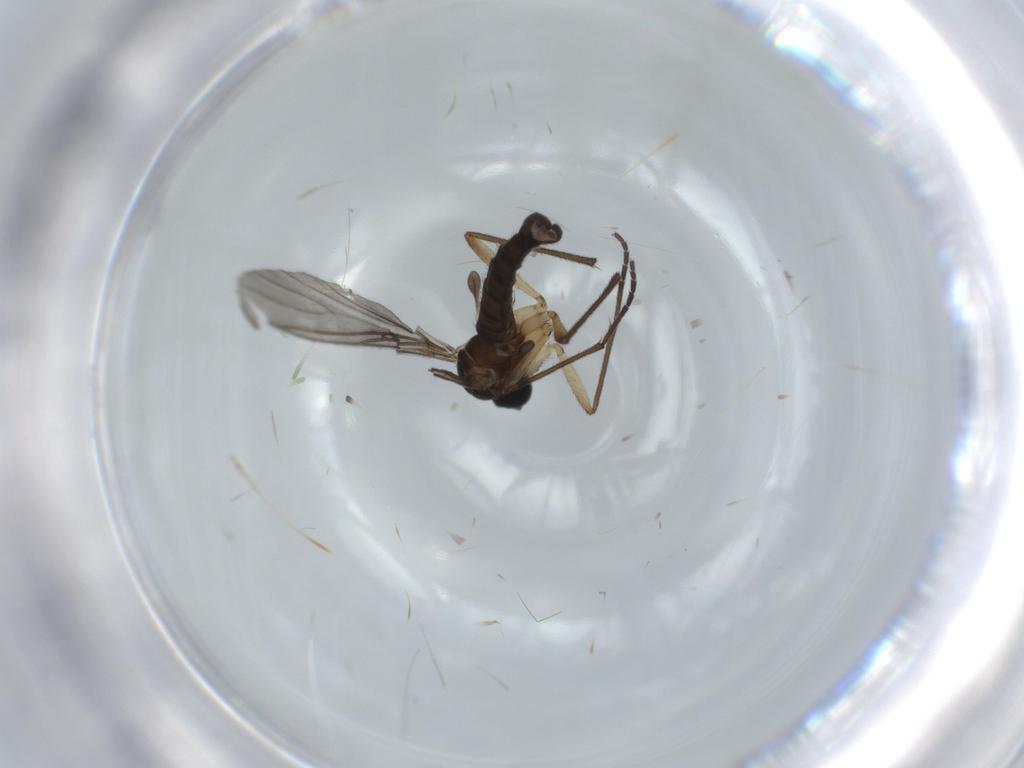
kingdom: Animalia
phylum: Arthropoda
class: Insecta
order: Diptera
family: Sciaridae
